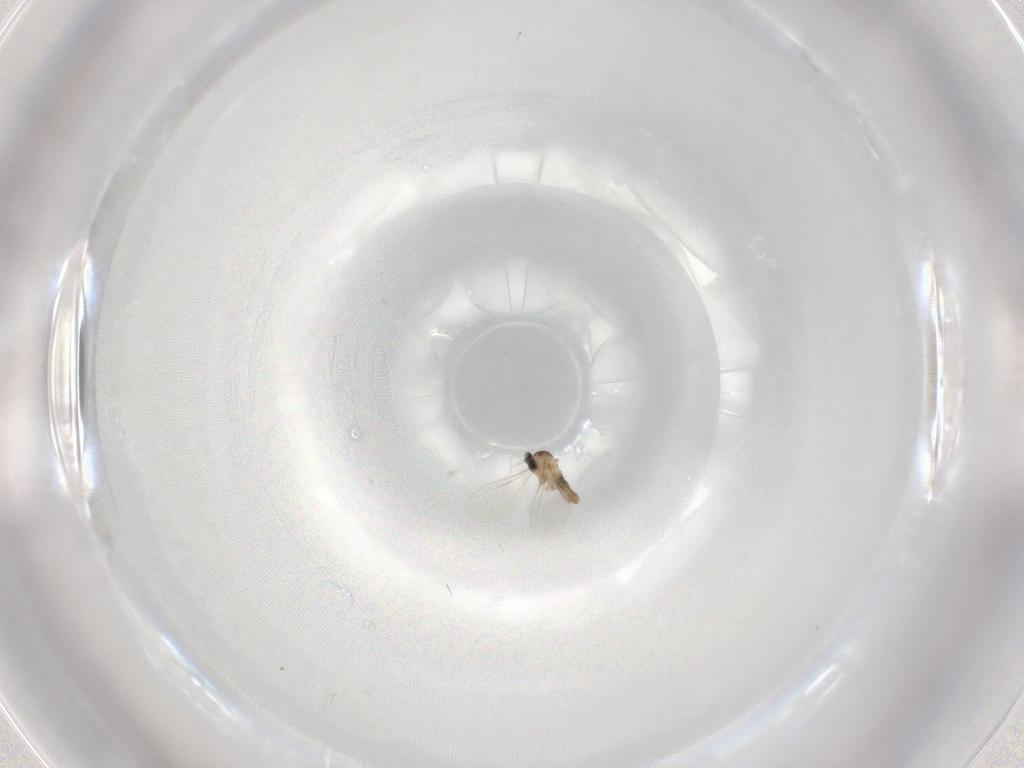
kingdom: Animalia
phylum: Arthropoda
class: Insecta
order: Diptera
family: Cecidomyiidae
